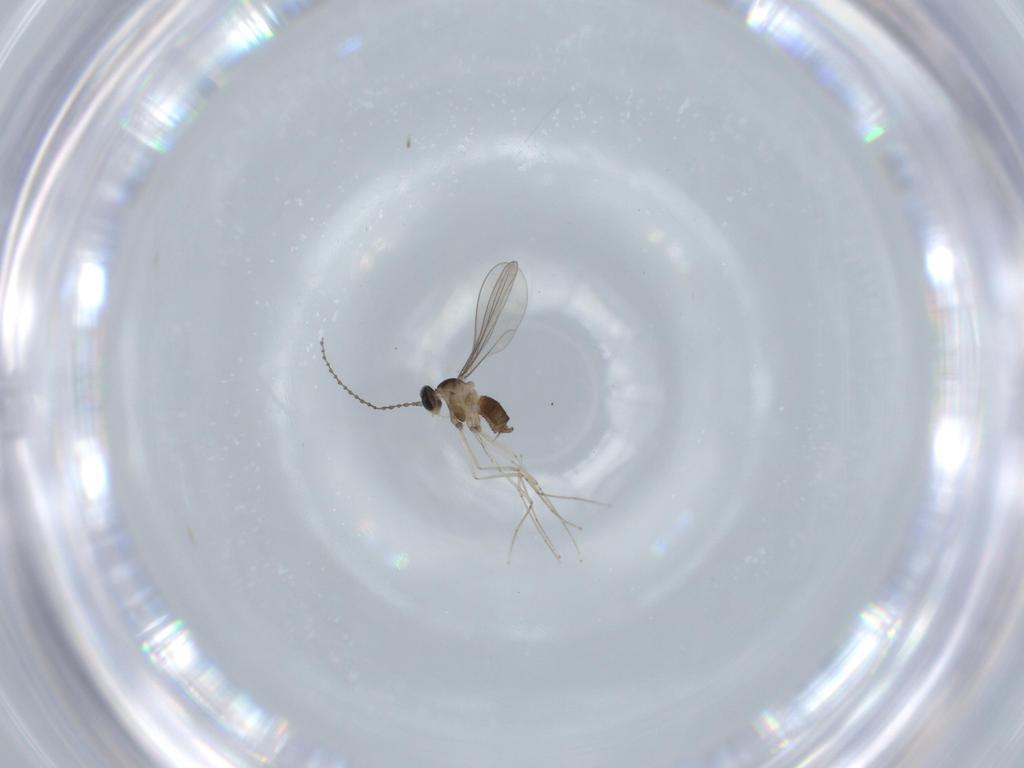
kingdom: Animalia
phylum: Arthropoda
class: Insecta
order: Diptera
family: Cecidomyiidae
